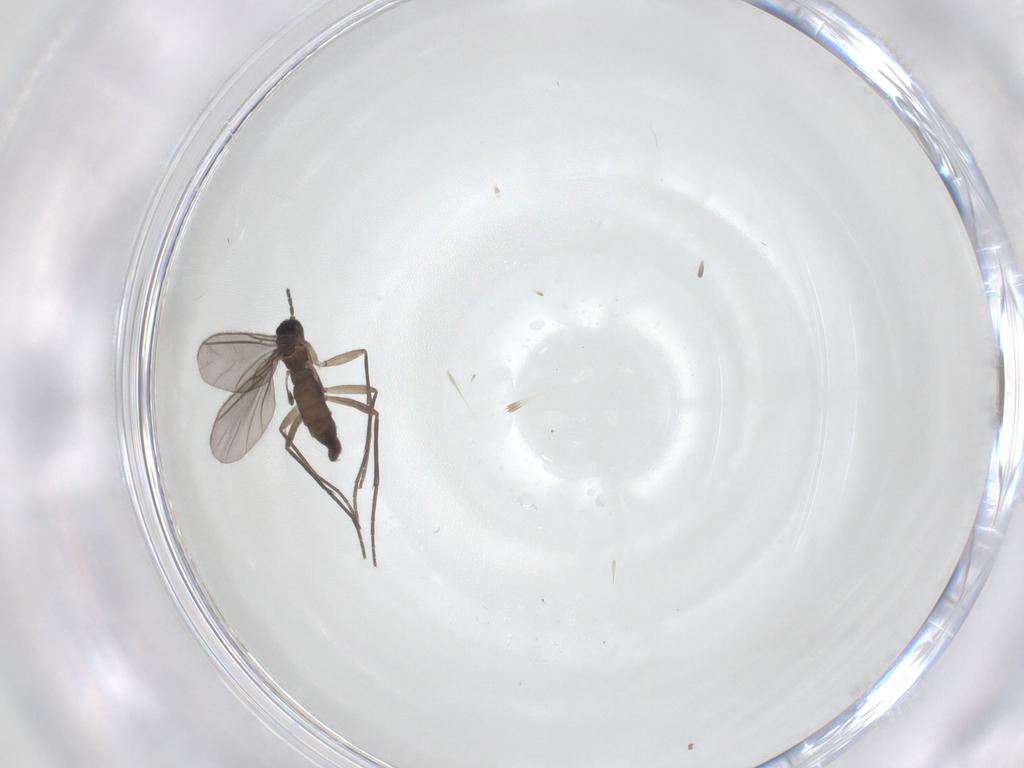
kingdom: Animalia
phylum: Arthropoda
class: Insecta
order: Diptera
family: Sciaridae
